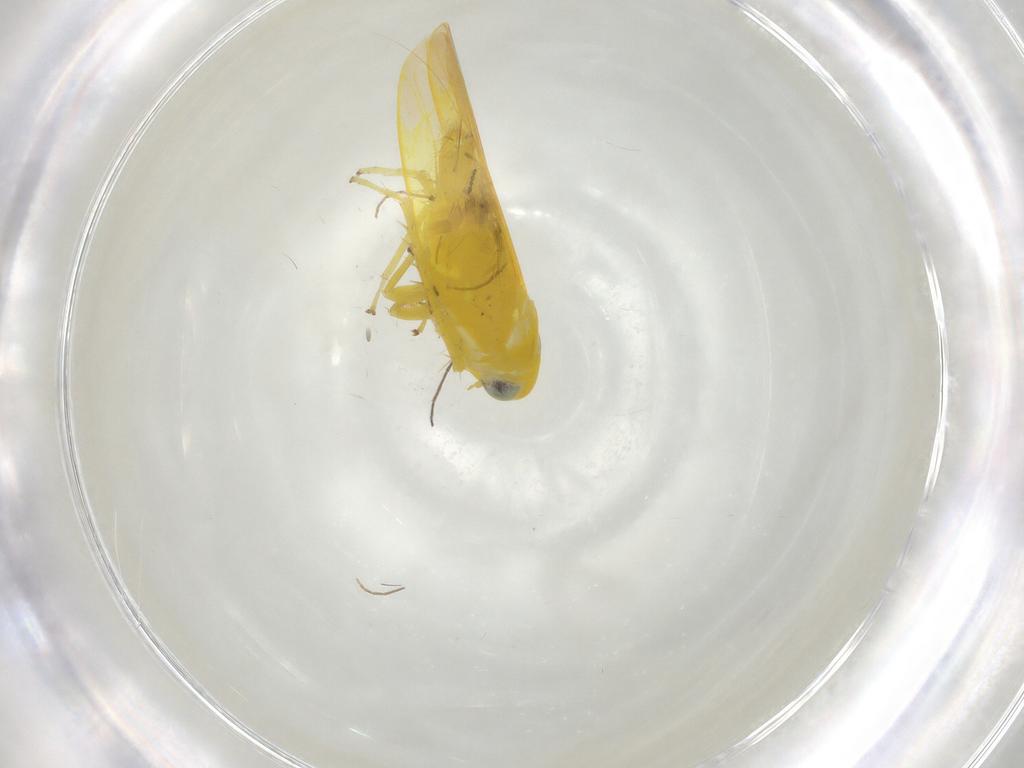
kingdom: Animalia
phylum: Arthropoda
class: Insecta
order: Hemiptera
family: Cicadellidae
